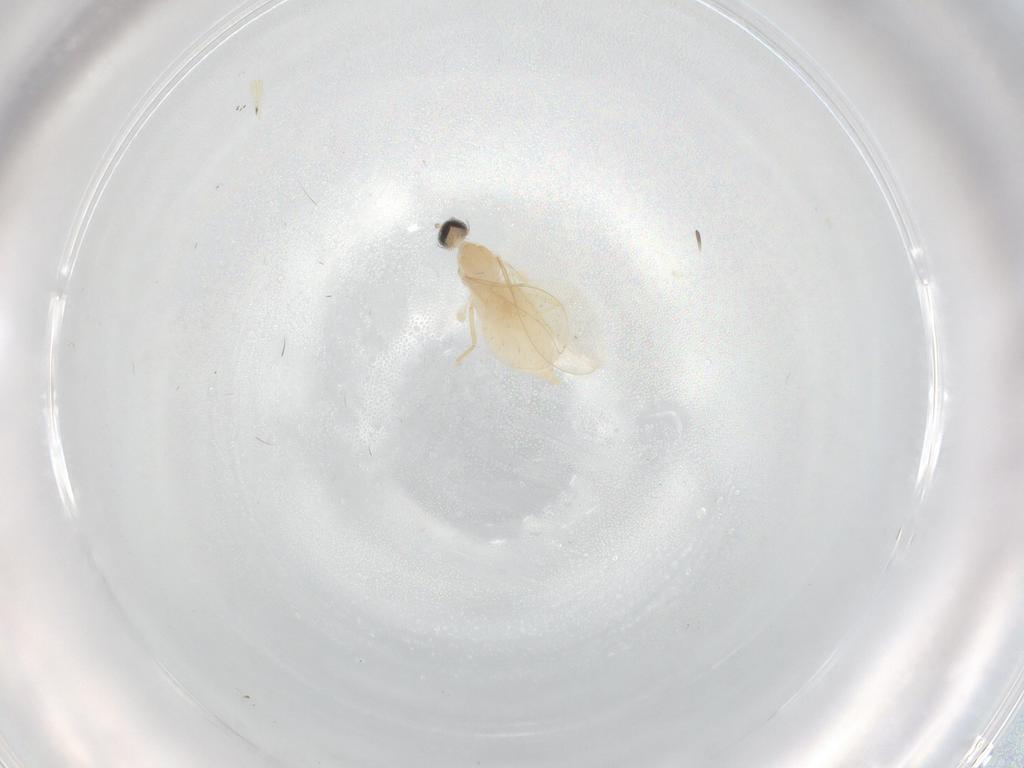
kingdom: Animalia
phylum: Arthropoda
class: Insecta
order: Diptera
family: Cecidomyiidae
